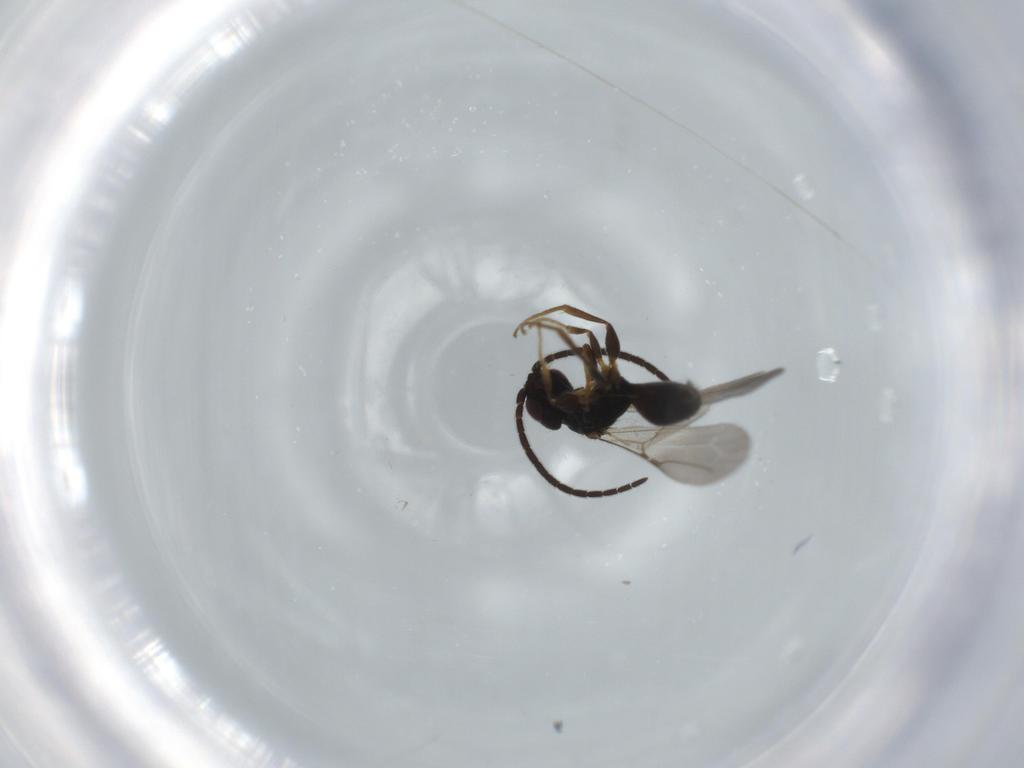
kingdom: Animalia
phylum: Arthropoda
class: Insecta
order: Hymenoptera
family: Bethylidae
